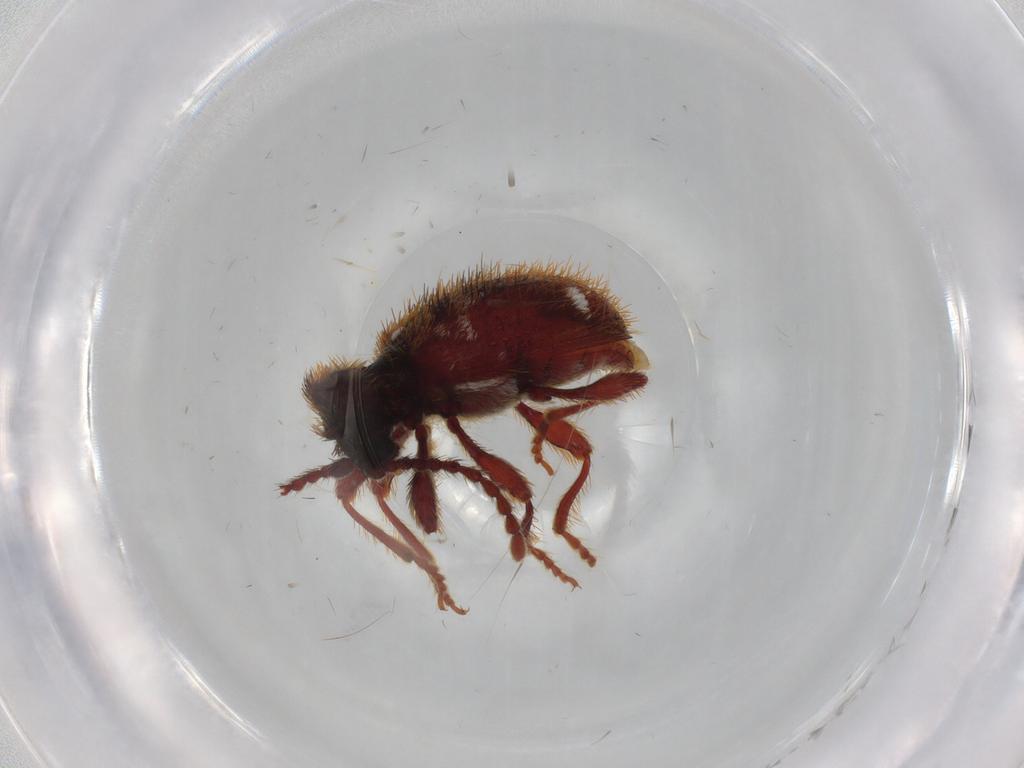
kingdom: Animalia
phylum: Arthropoda
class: Insecta
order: Coleoptera
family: Ptinidae
